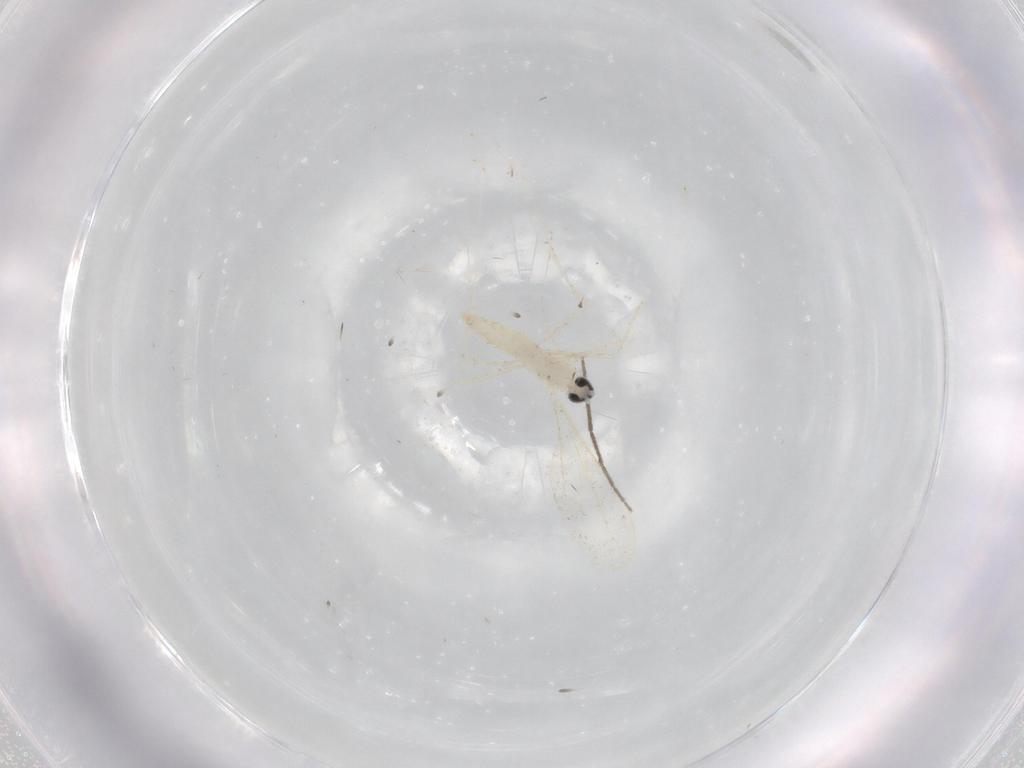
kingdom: Animalia
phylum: Arthropoda
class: Insecta
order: Diptera
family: Cecidomyiidae
